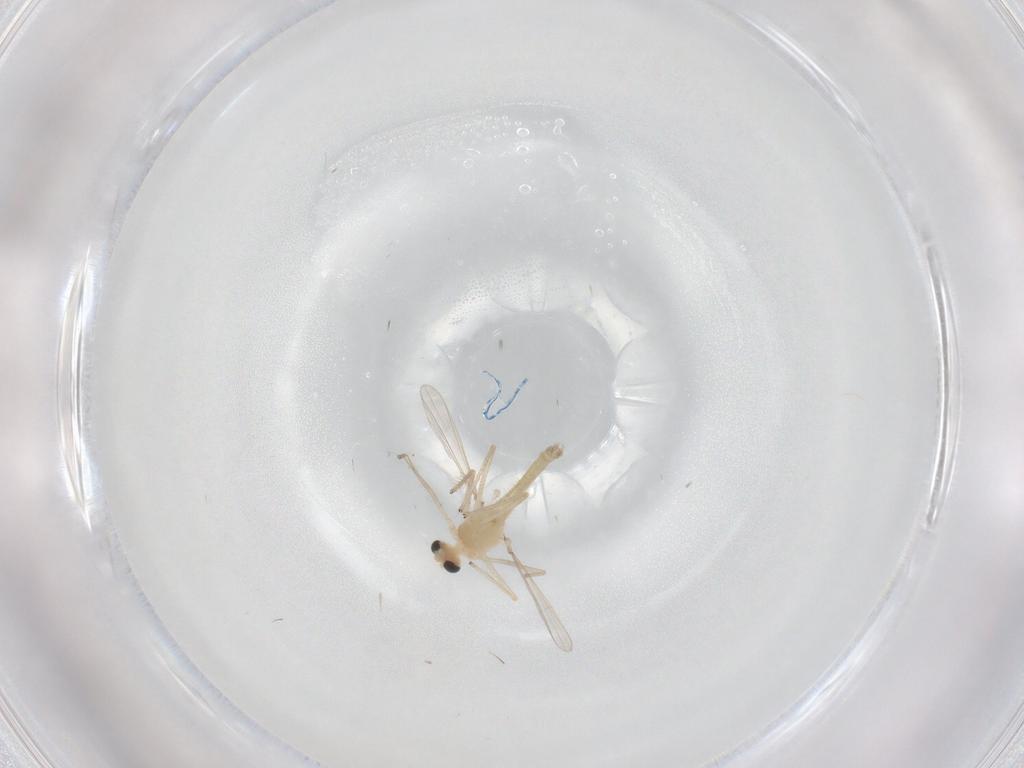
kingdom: Animalia
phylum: Arthropoda
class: Insecta
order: Diptera
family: Chironomidae
